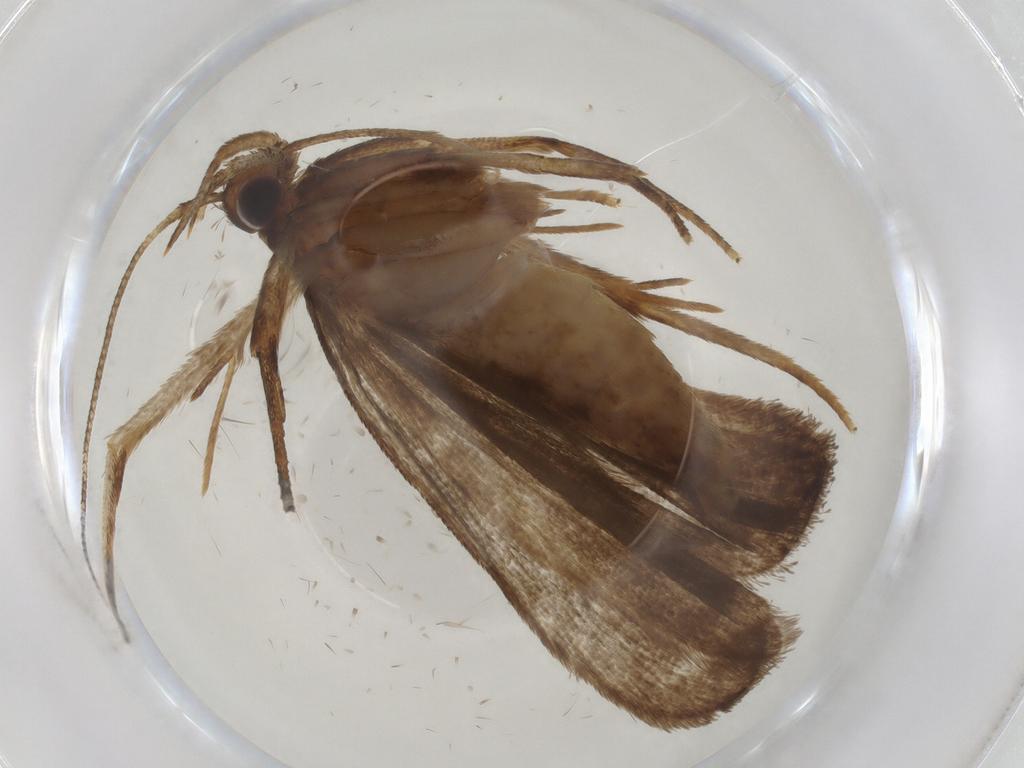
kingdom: Animalia
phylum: Arthropoda
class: Insecta
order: Lepidoptera
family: Autostichidae
